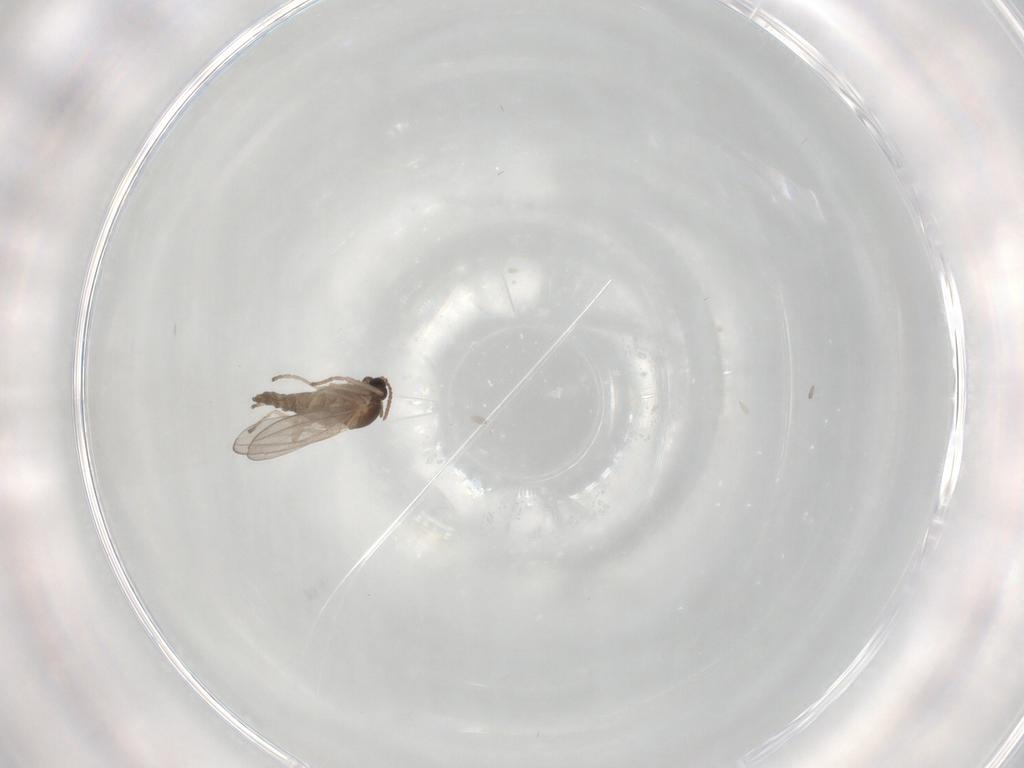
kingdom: Animalia
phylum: Arthropoda
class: Insecta
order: Diptera
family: Cecidomyiidae
